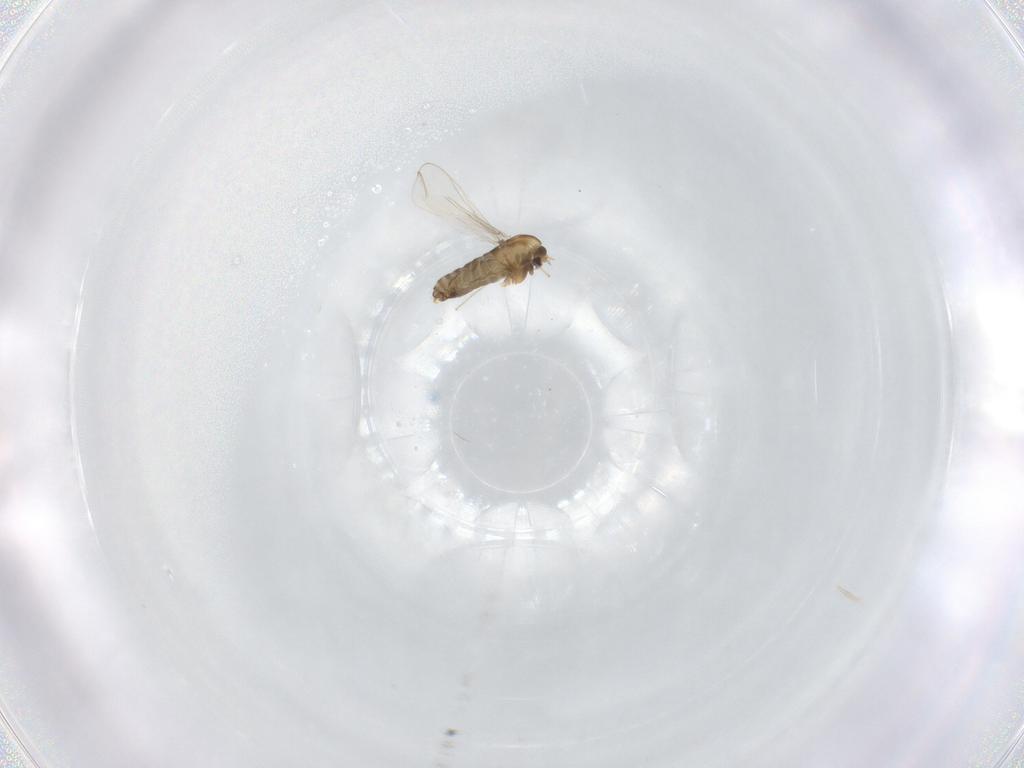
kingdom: Animalia
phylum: Arthropoda
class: Insecta
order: Diptera
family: Chironomidae
